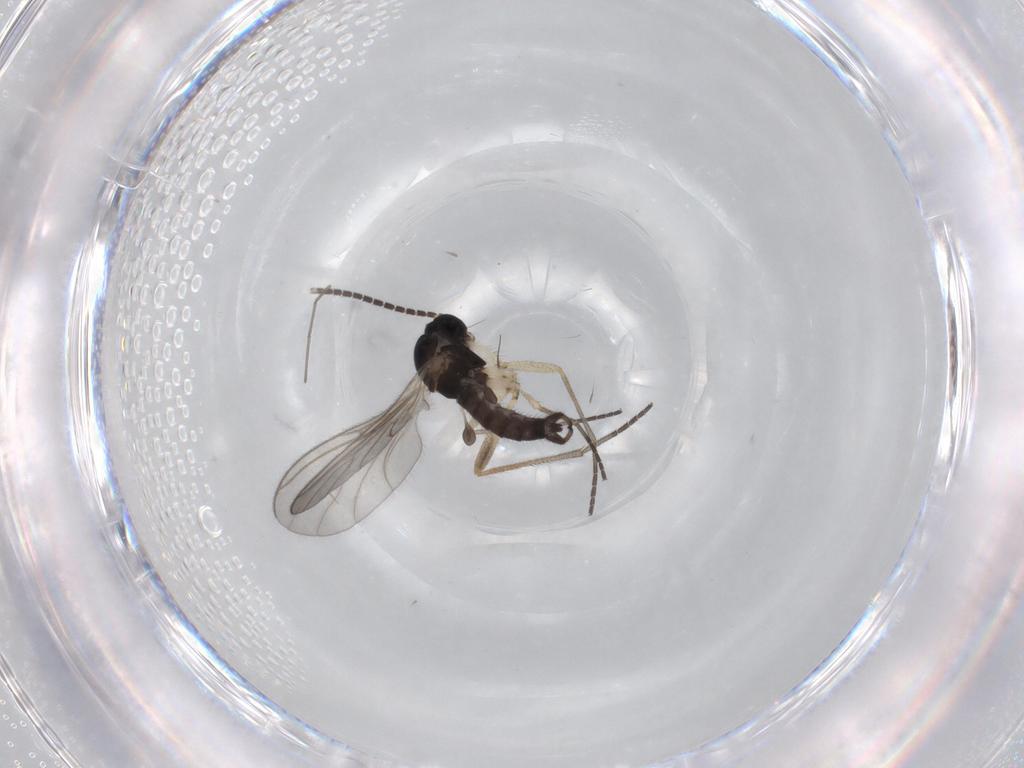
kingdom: Animalia
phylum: Arthropoda
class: Insecta
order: Diptera
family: Sciaridae
